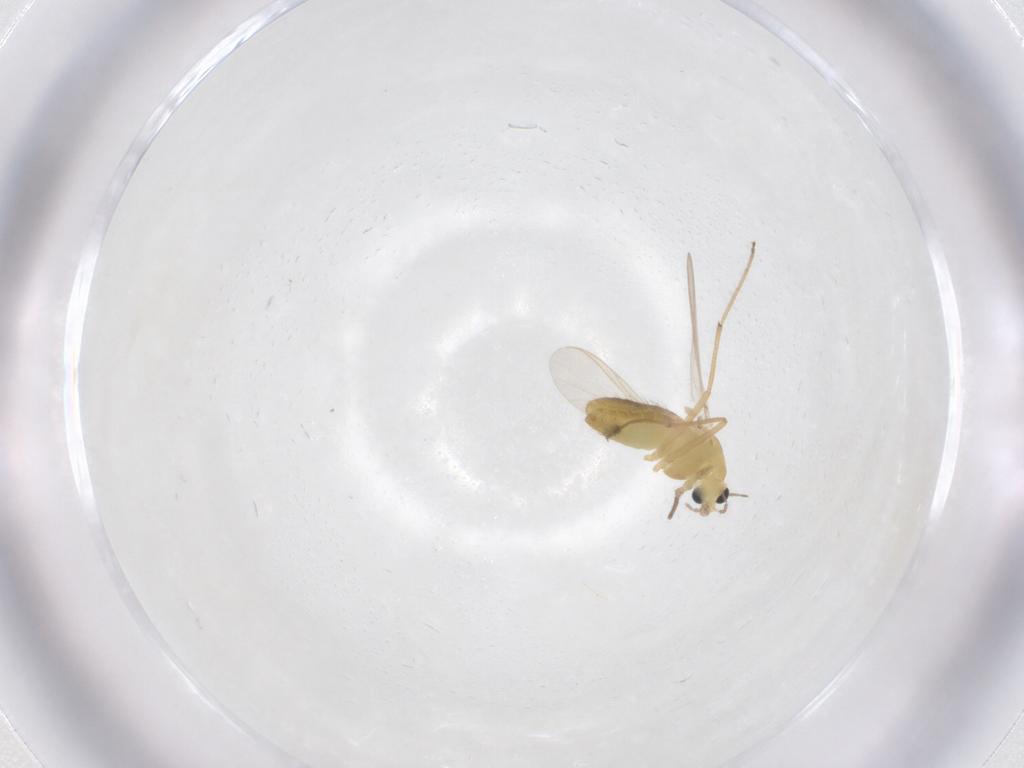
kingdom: Animalia
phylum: Arthropoda
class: Insecta
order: Diptera
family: Chironomidae
